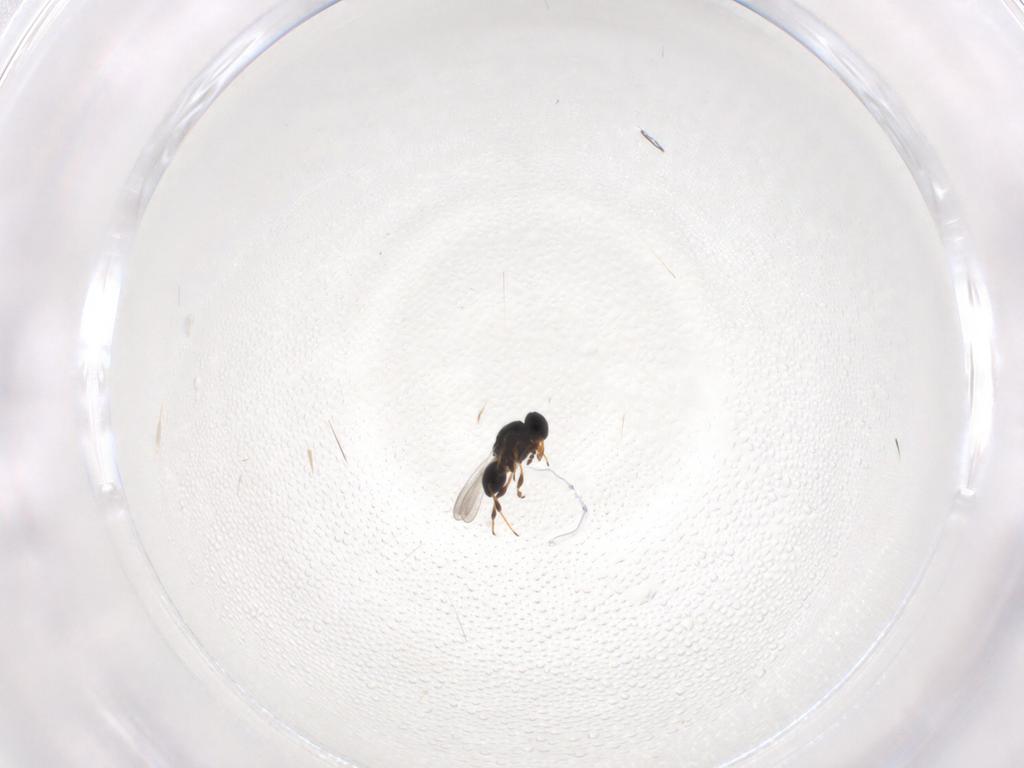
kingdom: Animalia
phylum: Arthropoda
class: Insecta
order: Hymenoptera
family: Platygastridae
